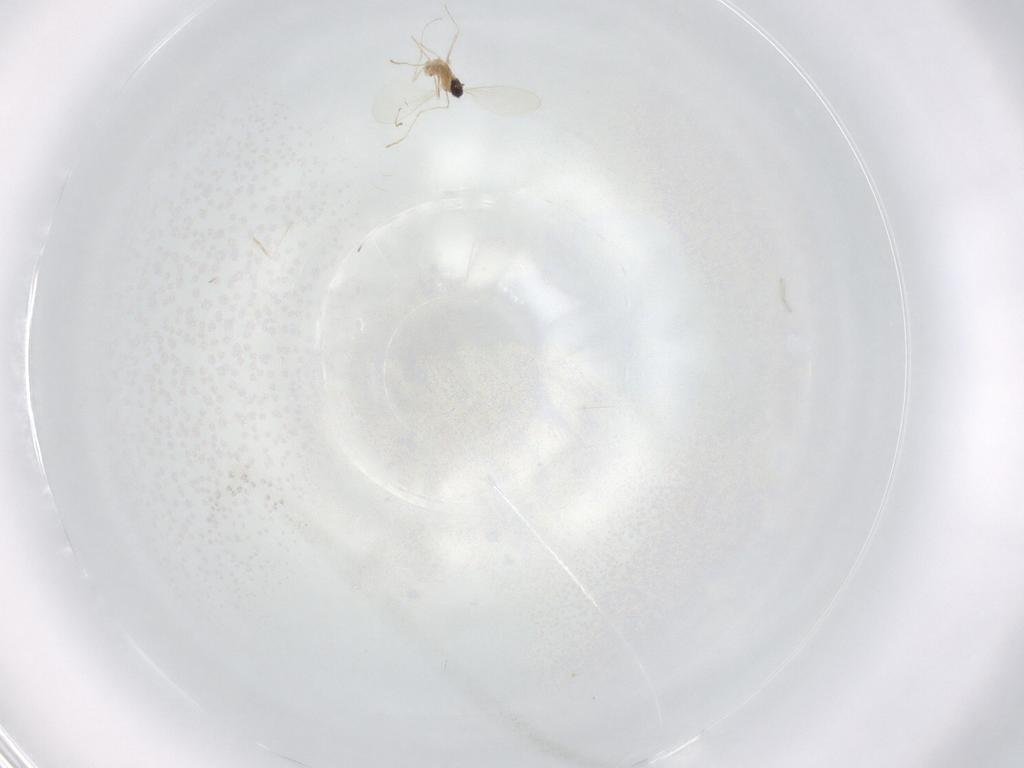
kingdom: Animalia
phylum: Arthropoda
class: Insecta
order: Diptera
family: Cecidomyiidae
